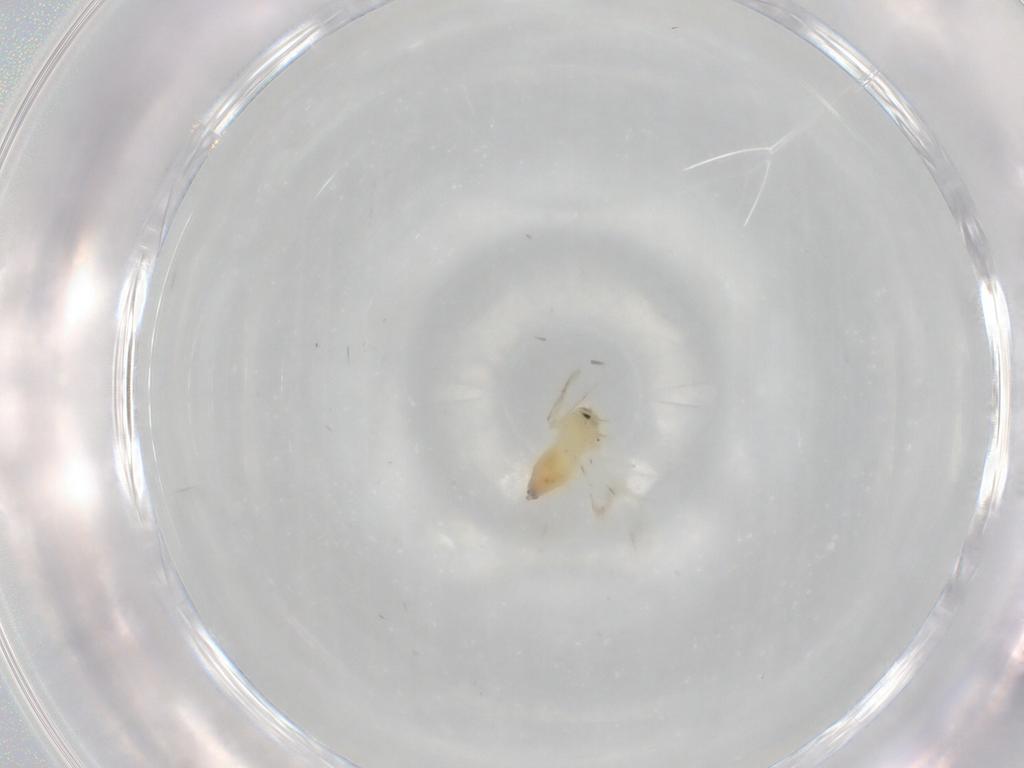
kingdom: Animalia
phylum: Arthropoda
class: Insecta
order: Hemiptera
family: Aleyrodidae
